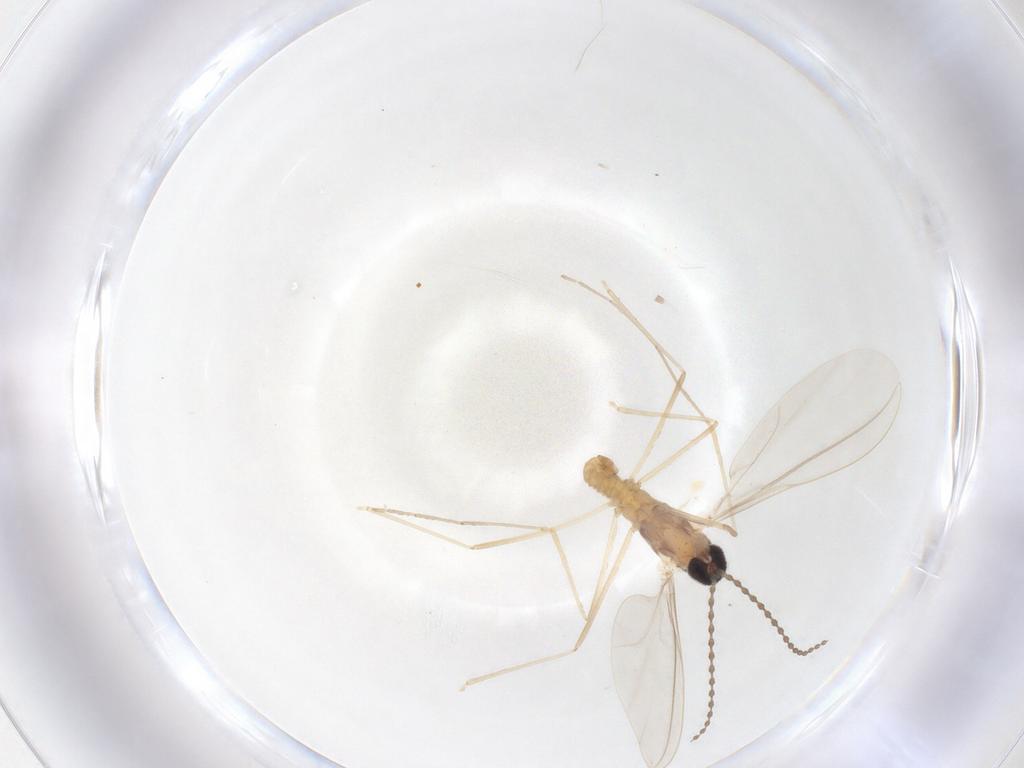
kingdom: Animalia
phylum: Arthropoda
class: Insecta
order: Diptera
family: Cecidomyiidae
